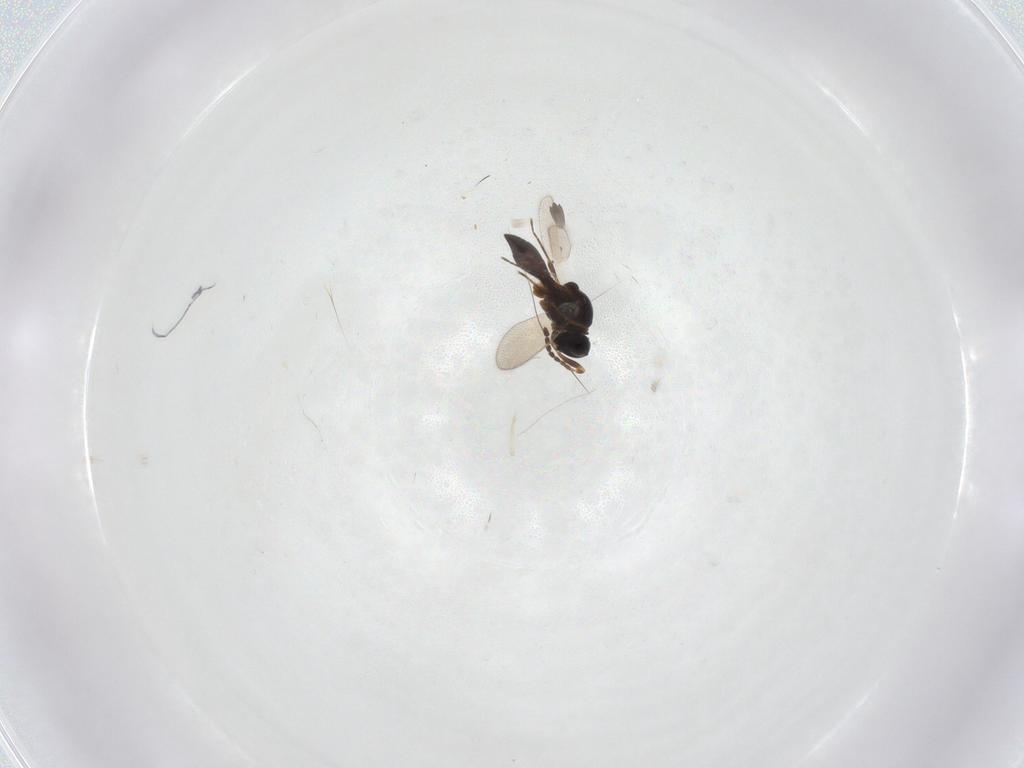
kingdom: Animalia
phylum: Arthropoda
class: Insecta
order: Hymenoptera
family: Platygastridae
